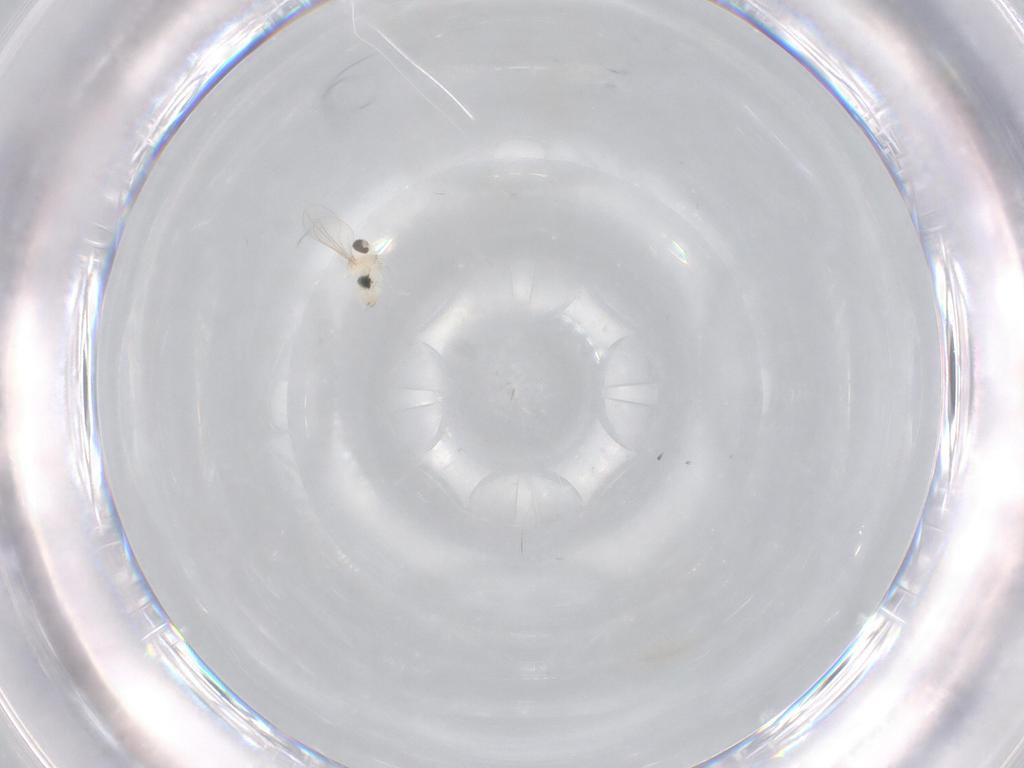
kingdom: Animalia
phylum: Arthropoda
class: Insecta
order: Diptera
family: Cecidomyiidae
